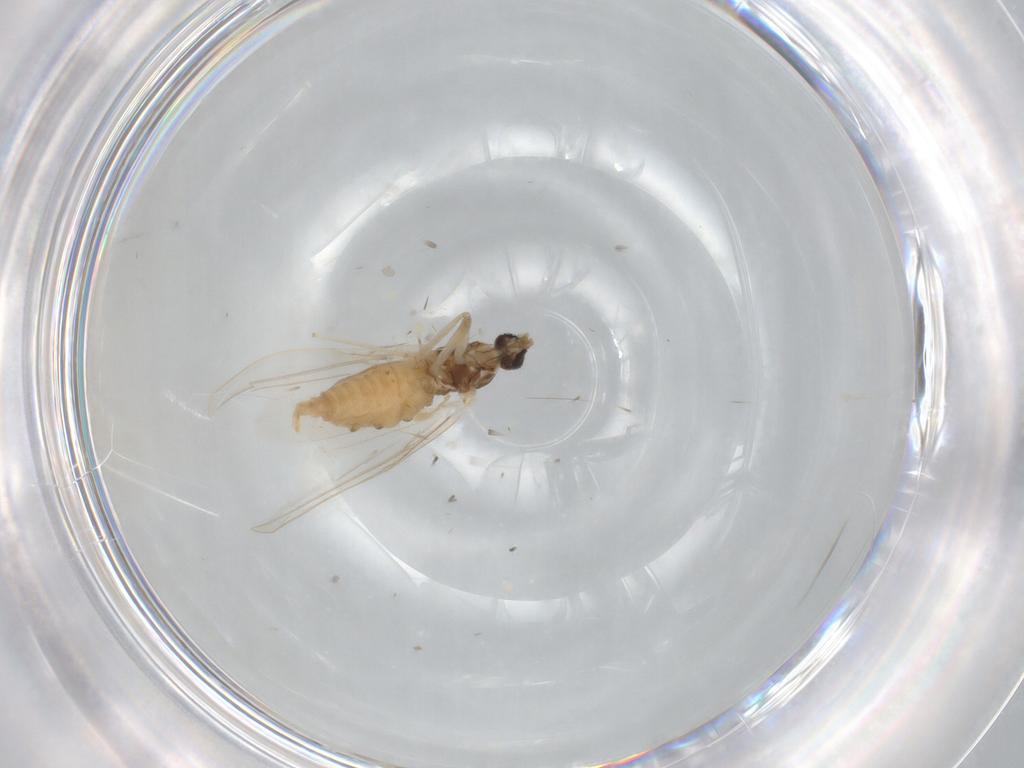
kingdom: Animalia
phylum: Arthropoda
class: Insecta
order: Diptera
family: Cecidomyiidae
